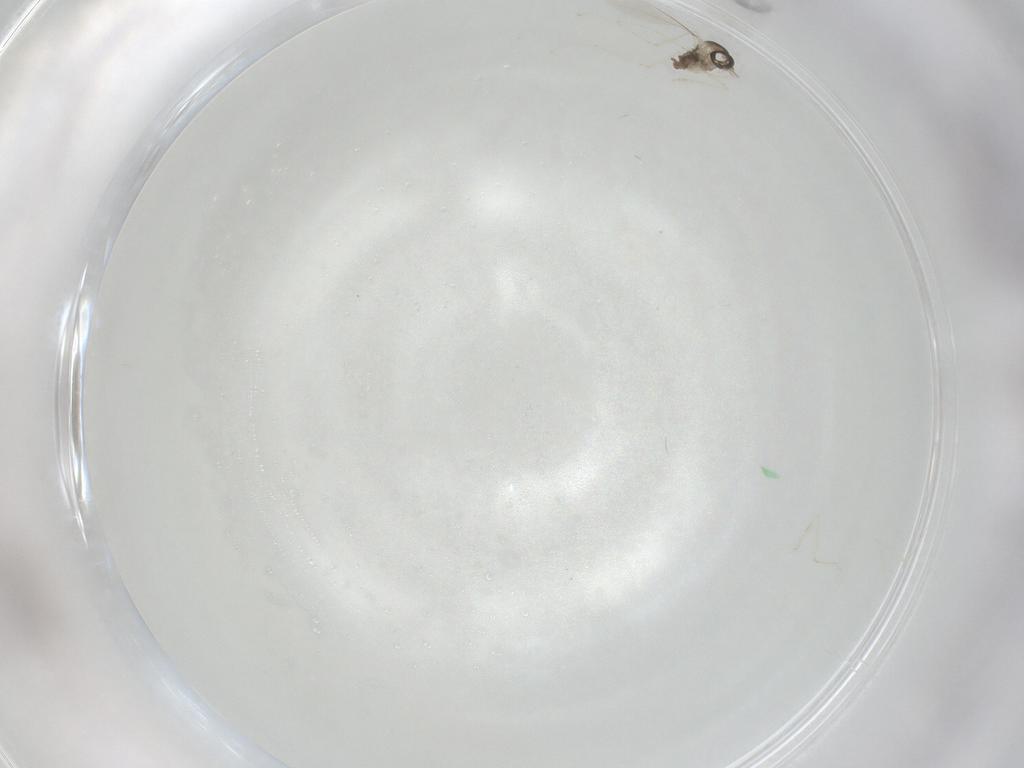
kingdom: Animalia
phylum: Arthropoda
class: Insecta
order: Diptera
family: Cecidomyiidae
